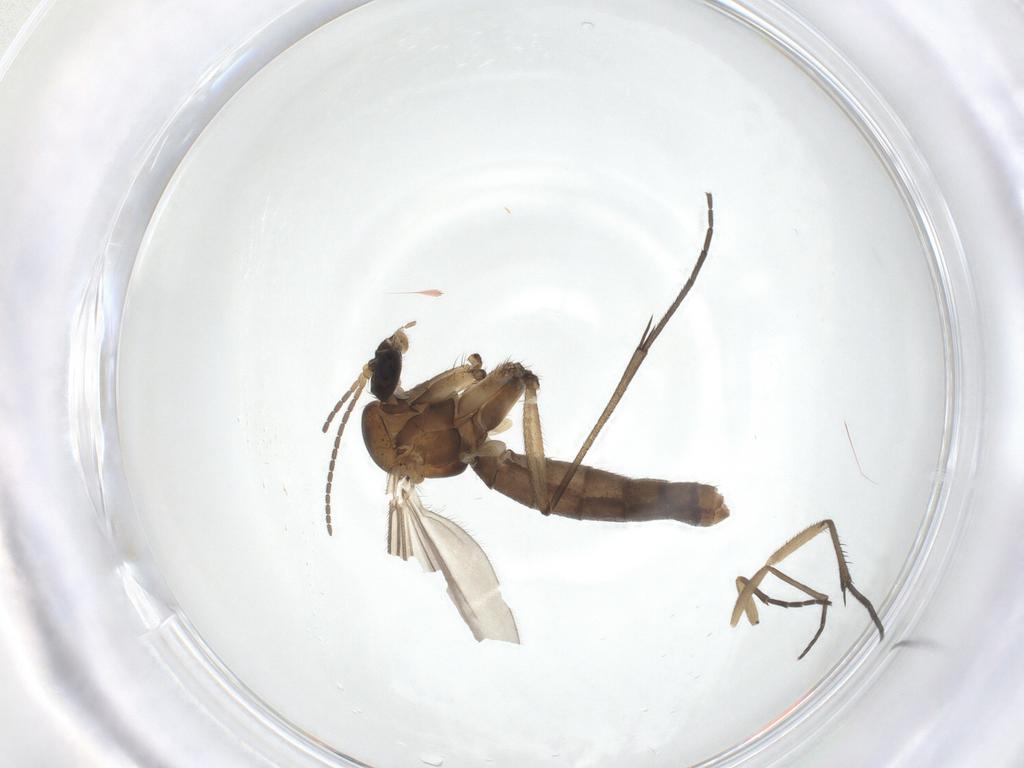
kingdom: Animalia
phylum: Arthropoda
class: Insecta
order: Diptera
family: Mycetophilidae
